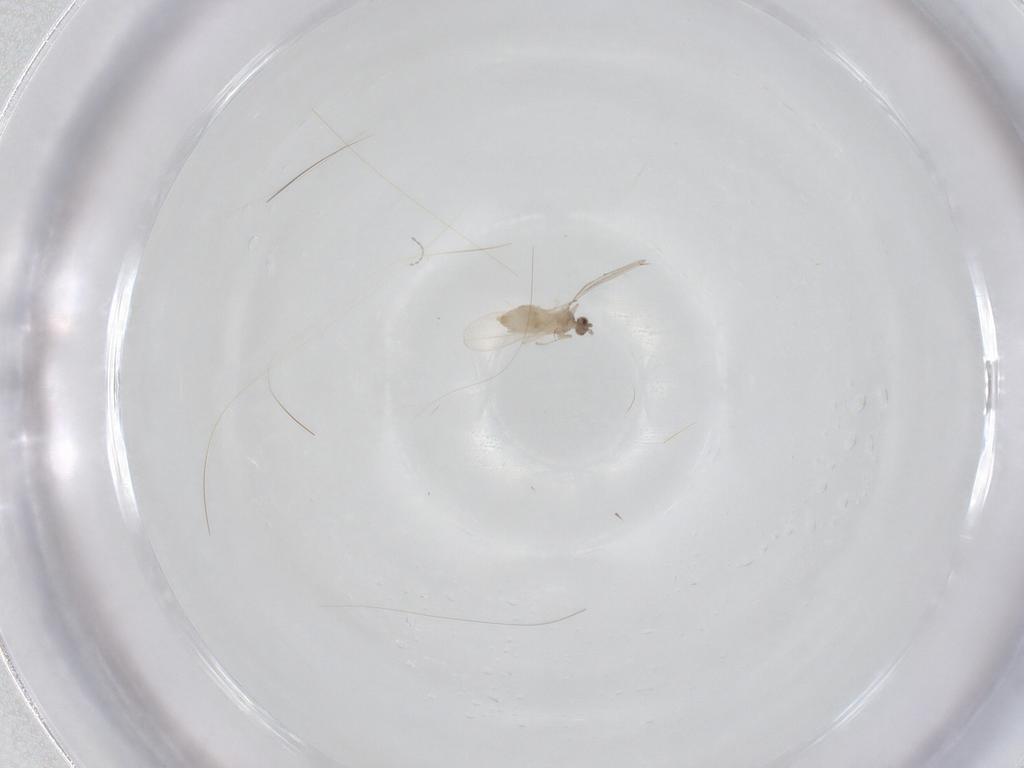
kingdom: Animalia
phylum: Arthropoda
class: Insecta
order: Diptera
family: Cecidomyiidae
